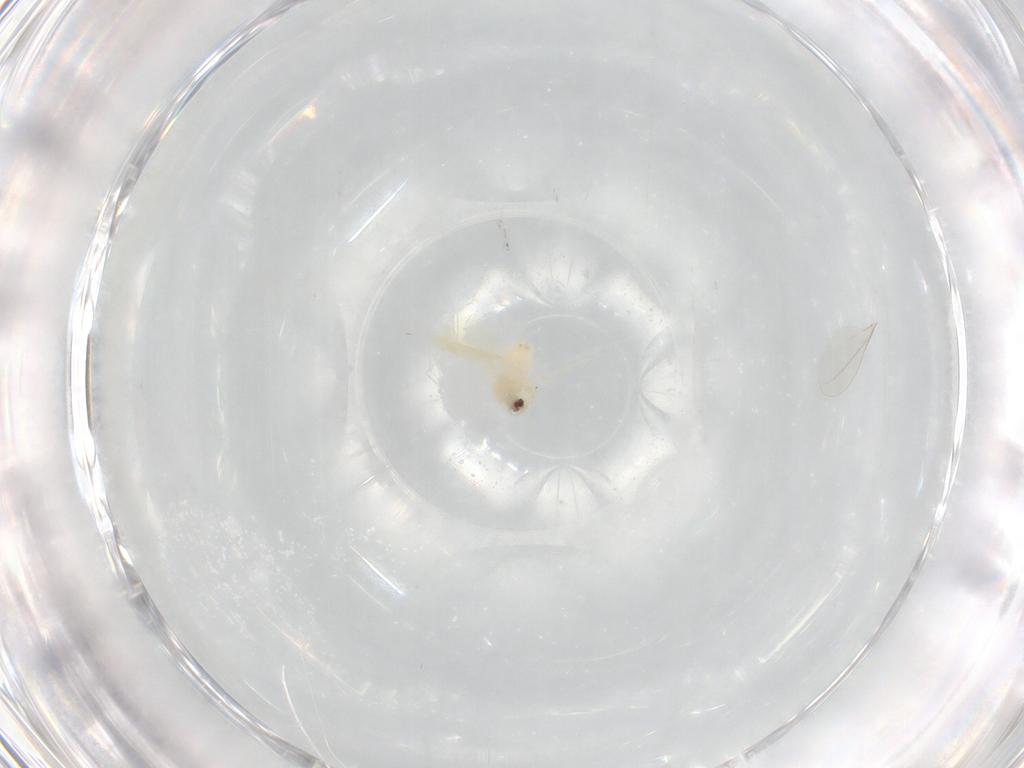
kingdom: Animalia
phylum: Arthropoda
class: Insecta
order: Hemiptera
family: Aleyrodidae
